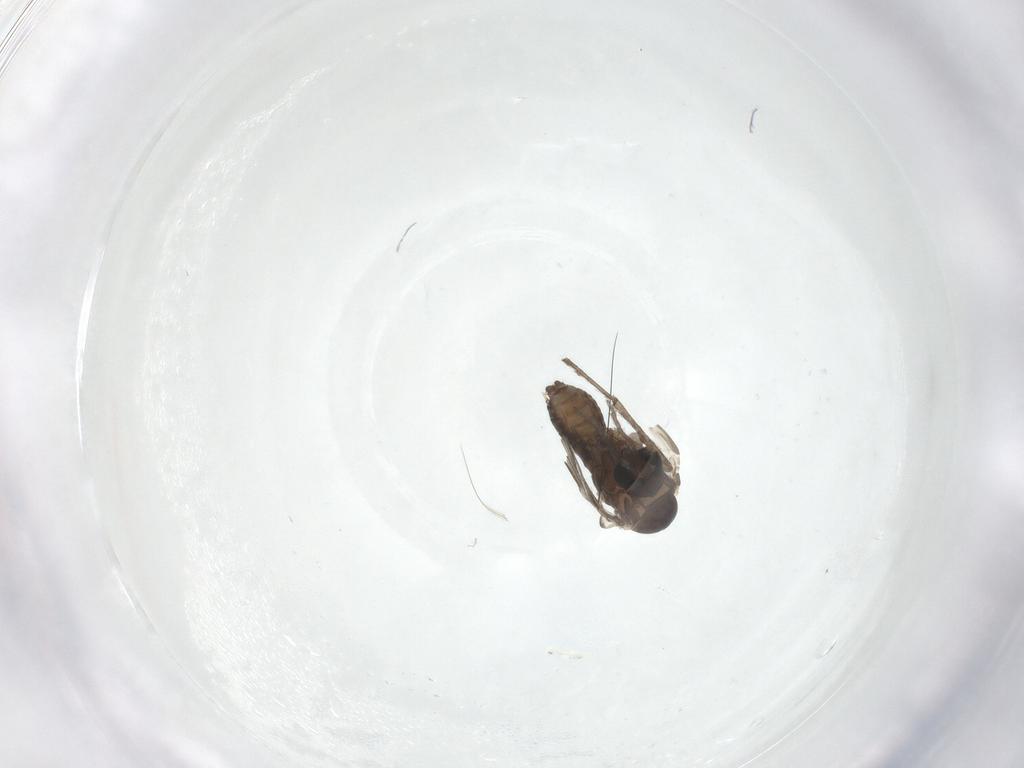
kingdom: Animalia
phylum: Arthropoda
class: Insecta
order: Diptera
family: Psychodidae
